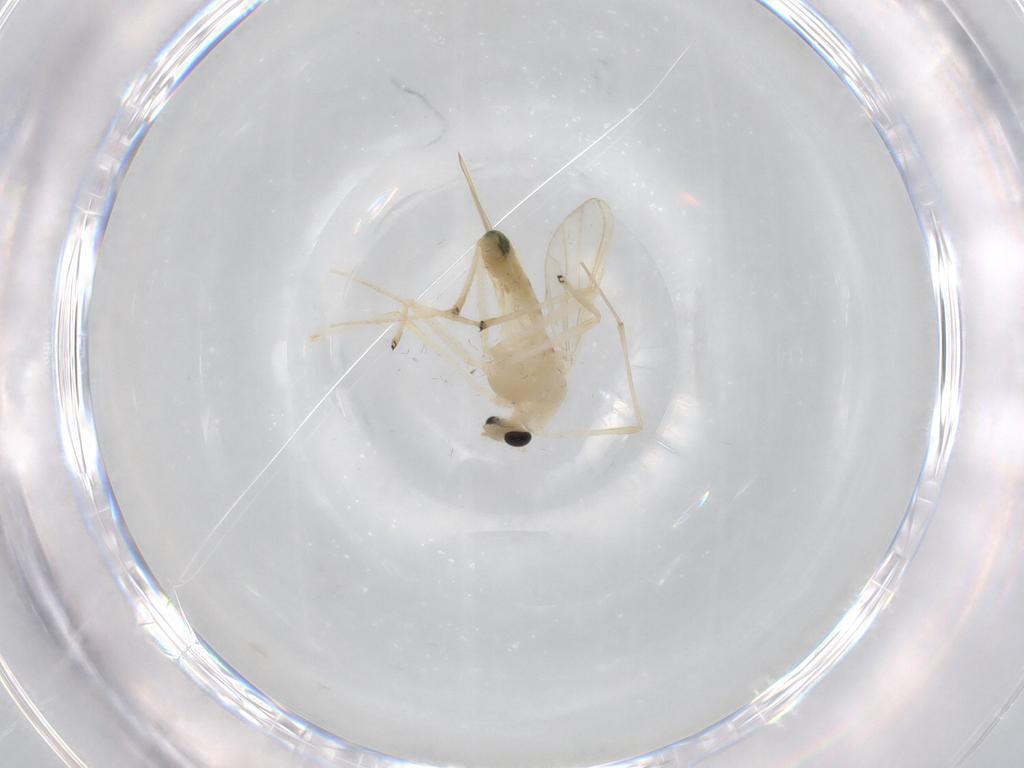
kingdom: Animalia
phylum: Arthropoda
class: Insecta
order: Diptera
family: Chironomidae
